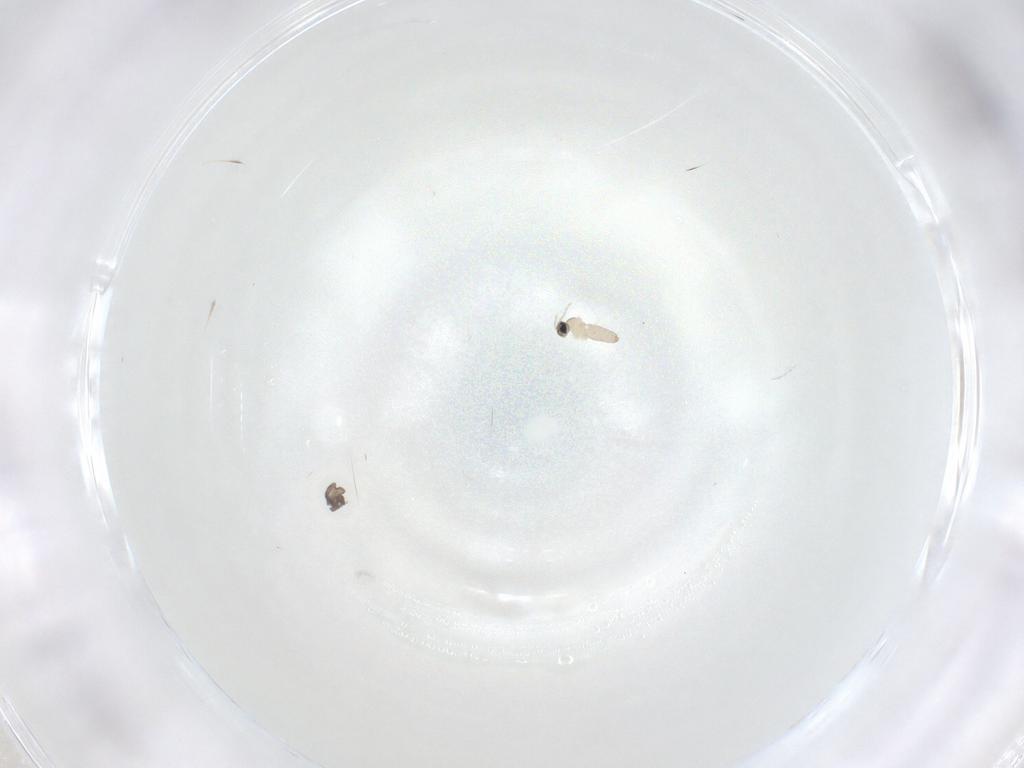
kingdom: Animalia
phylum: Arthropoda
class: Insecta
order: Diptera
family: Cecidomyiidae
